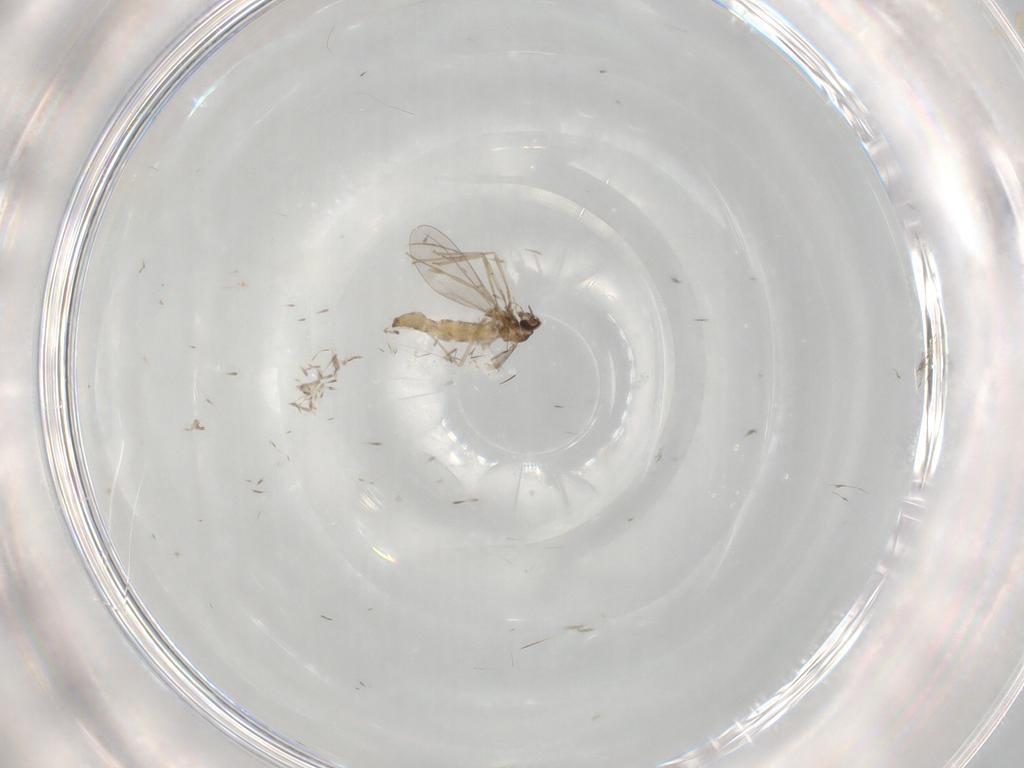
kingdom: Animalia
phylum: Arthropoda
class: Insecta
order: Diptera
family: Cecidomyiidae
